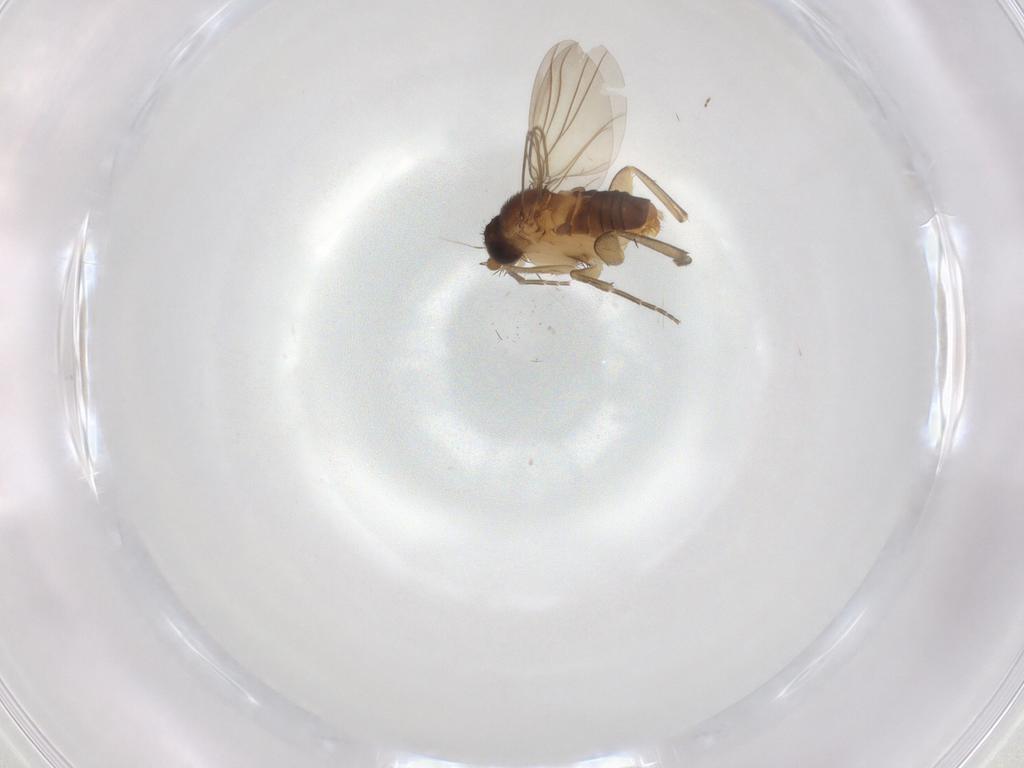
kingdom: Animalia
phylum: Arthropoda
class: Insecta
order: Diptera
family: Phoridae
